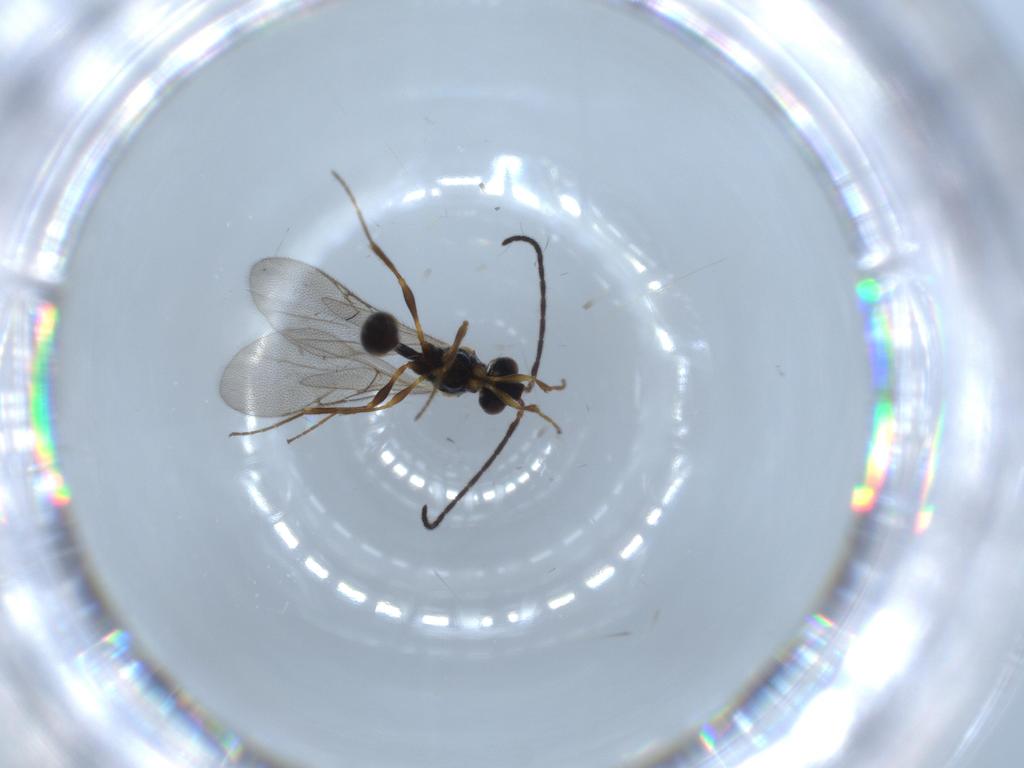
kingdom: Animalia
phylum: Arthropoda
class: Insecta
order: Hymenoptera
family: Diapriidae
